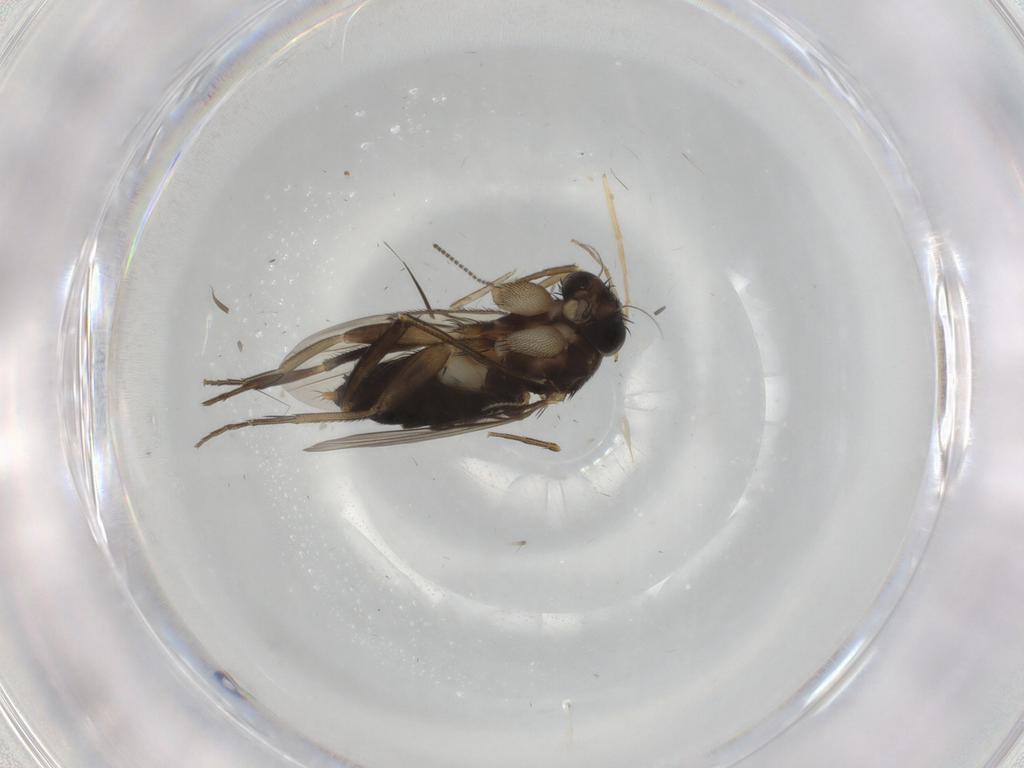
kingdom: Animalia
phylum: Arthropoda
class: Insecta
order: Diptera
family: Phoridae
